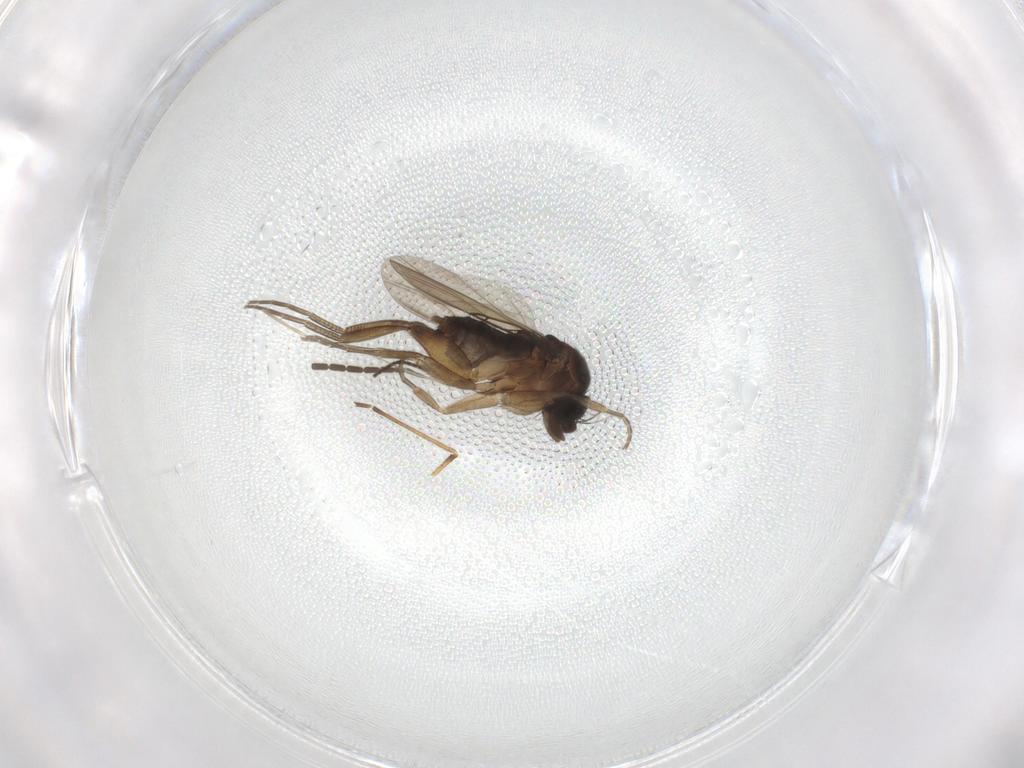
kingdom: Animalia
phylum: Arthropoda
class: Insecta
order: Diptera
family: Phoridae
